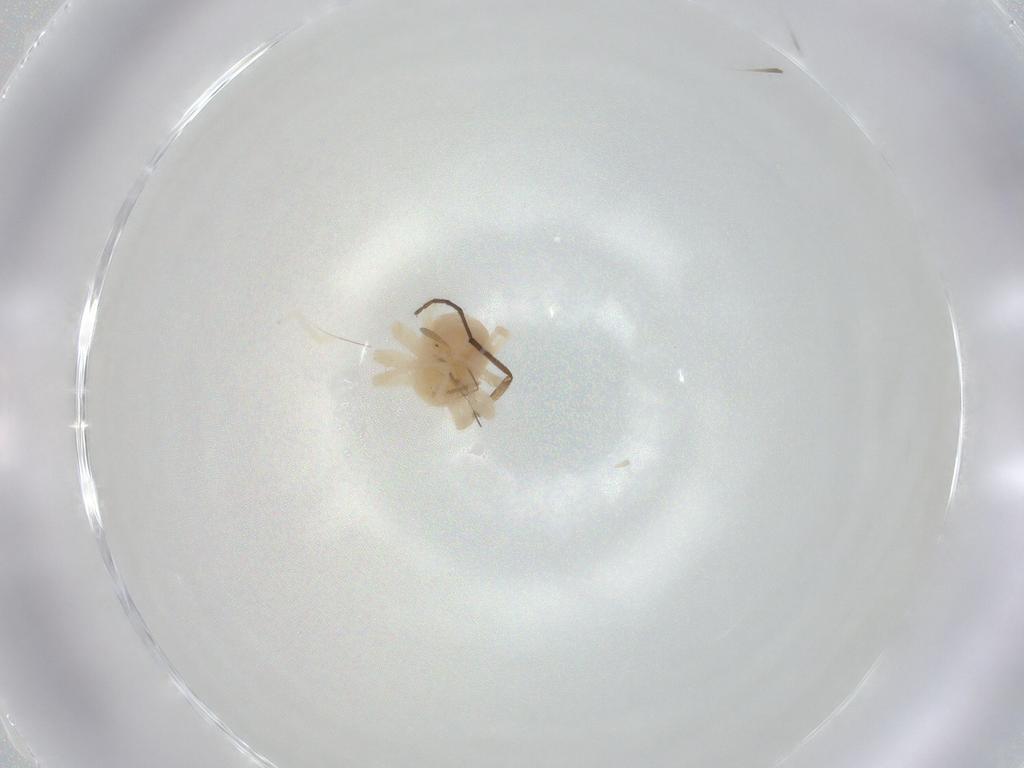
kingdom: Animalia
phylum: Arthropoda
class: Arachnida
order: Trombidiformes
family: Anystidae
